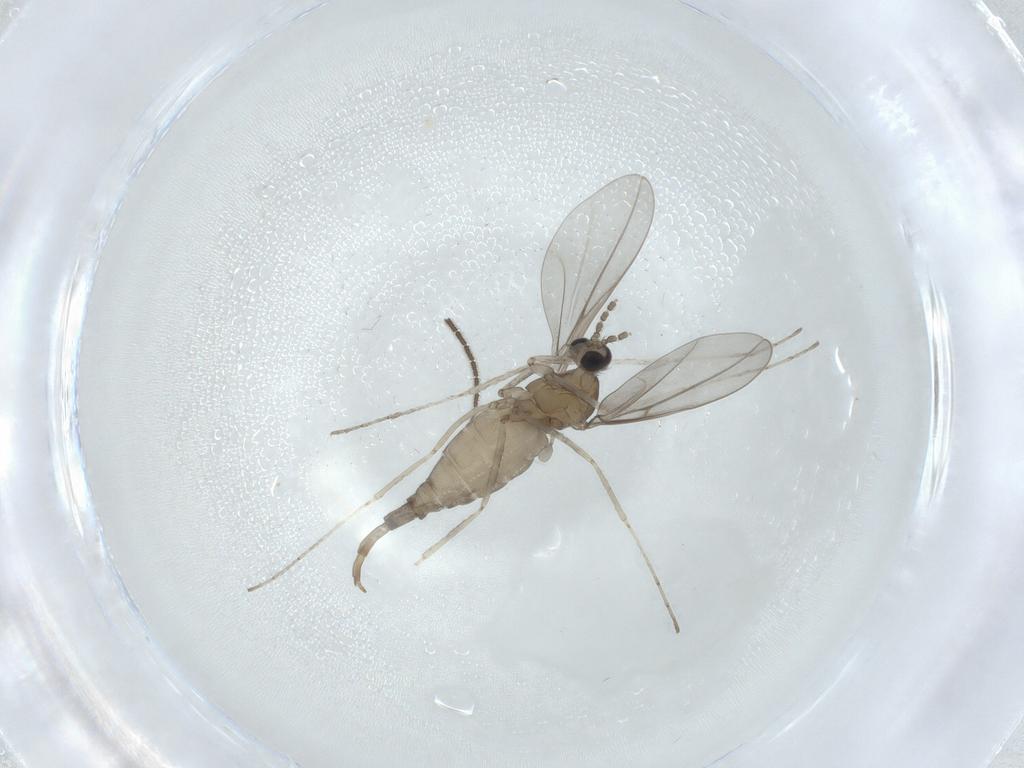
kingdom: Animalia
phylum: Arthropoda
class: Insecta
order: Diptera
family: Cecidomyiidae
